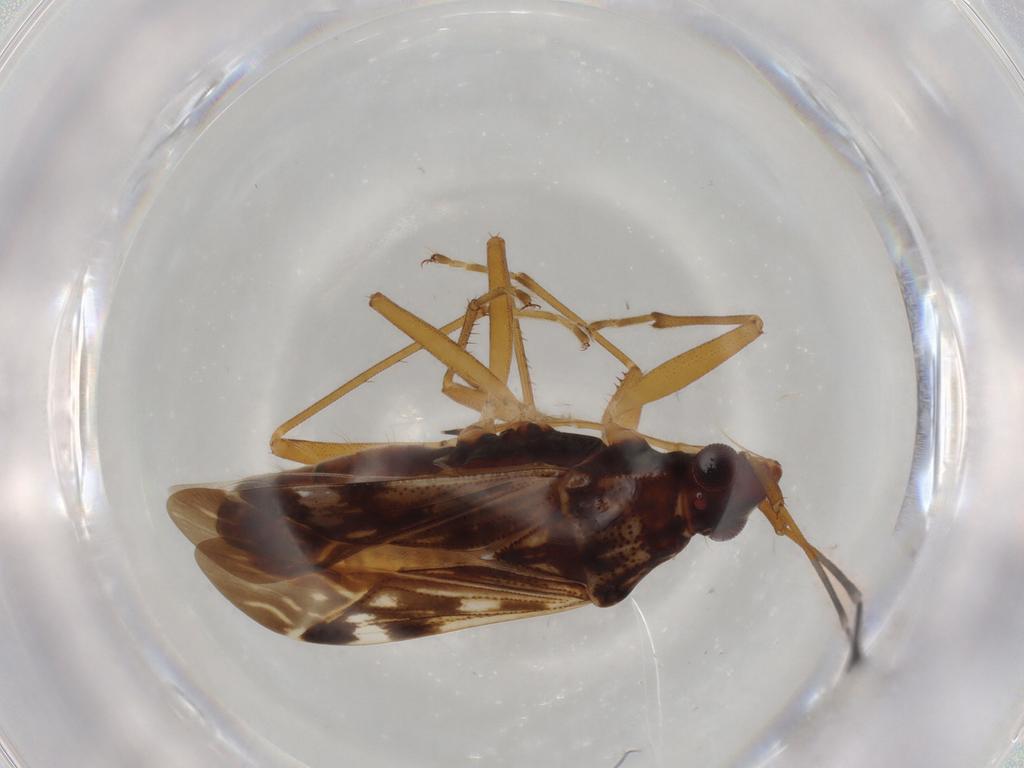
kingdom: Animalia
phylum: Arthropoda
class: Insecta
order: Hemiptera
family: Rhyparochromidae
